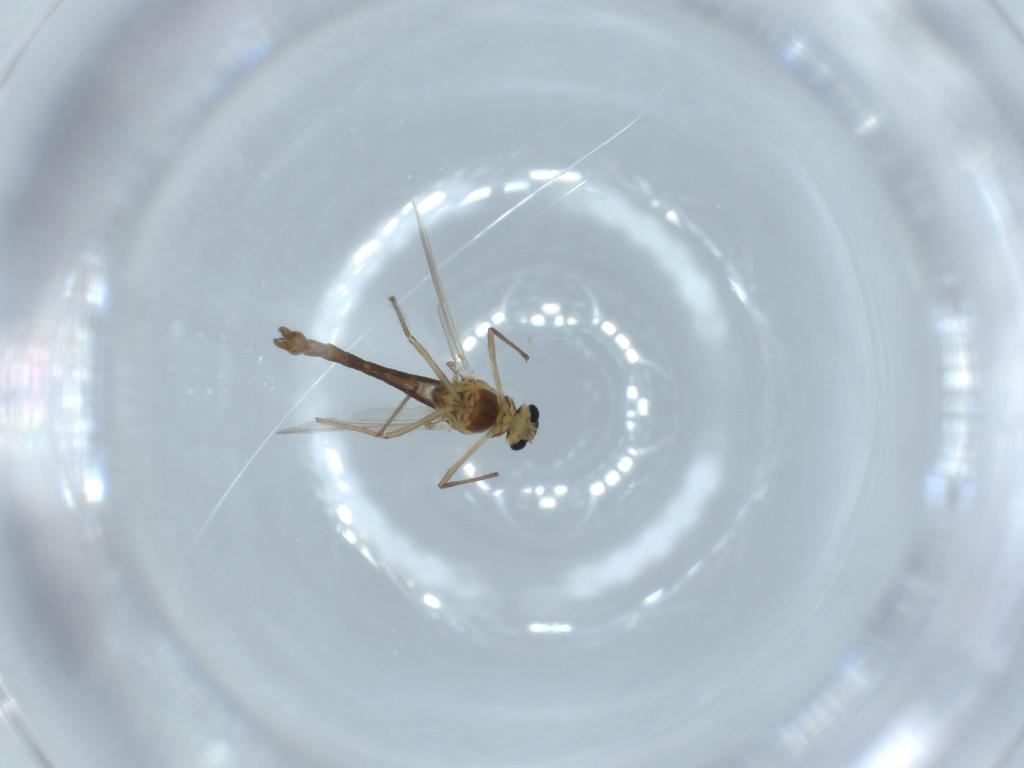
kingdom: Animalia
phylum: Arthropoda
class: Insecta
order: Diptera
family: Chironomidae
